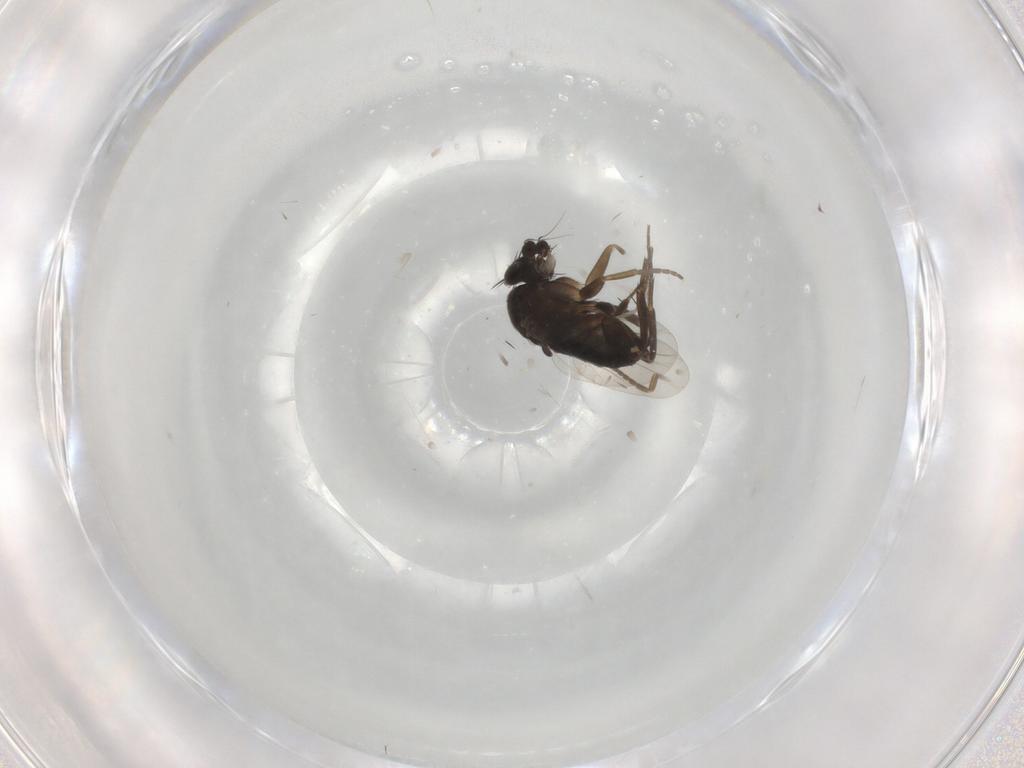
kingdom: Animalia
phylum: Arthropoda
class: Insecta
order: Diptera
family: Phoridae
